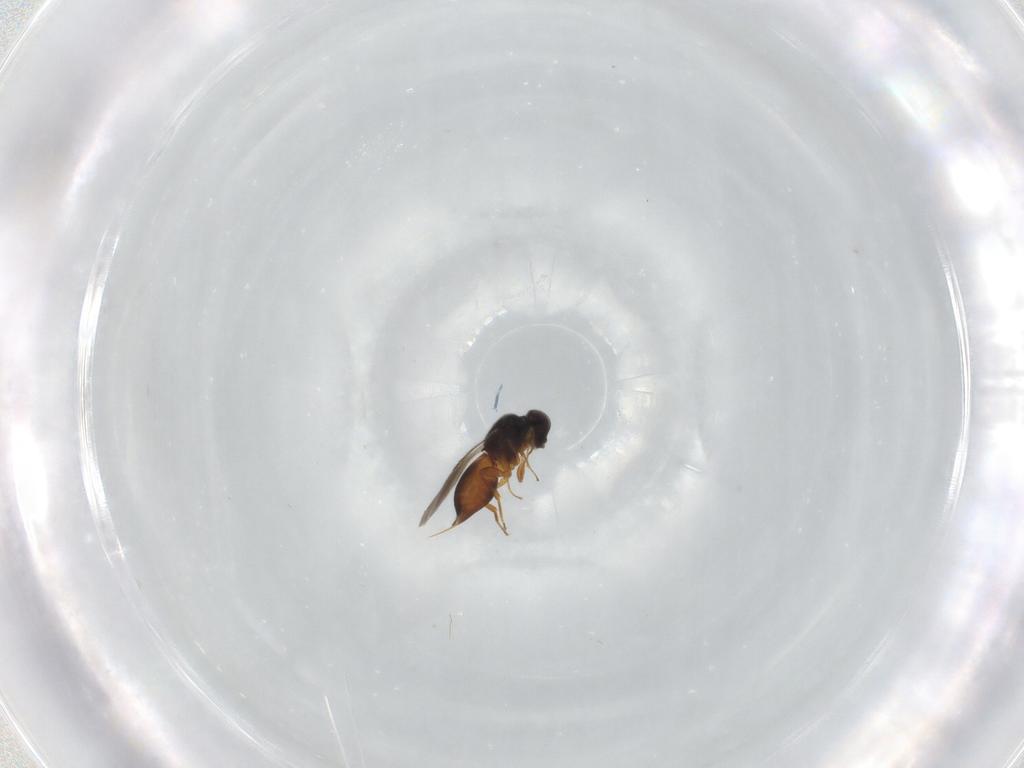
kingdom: Animalia
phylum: Arthropoda
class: Insecta
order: Hymenoptera
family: Ceraphronidae
